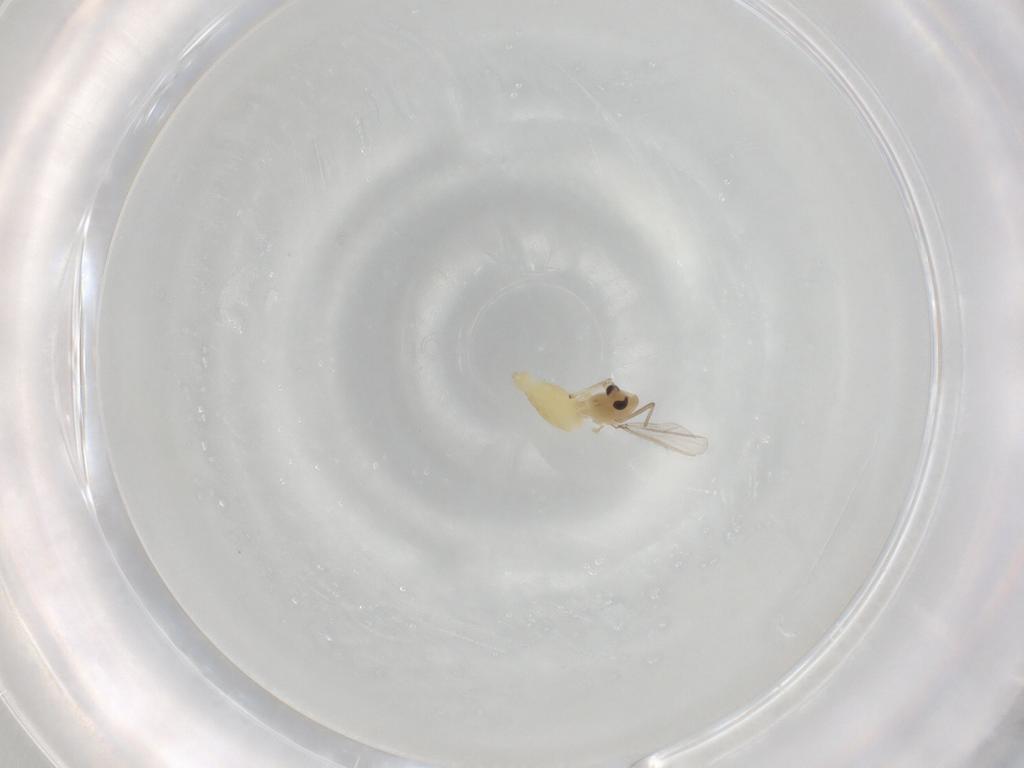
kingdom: Animalia
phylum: Arthropoda
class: Insecta
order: Diptera
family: Chironomidae
